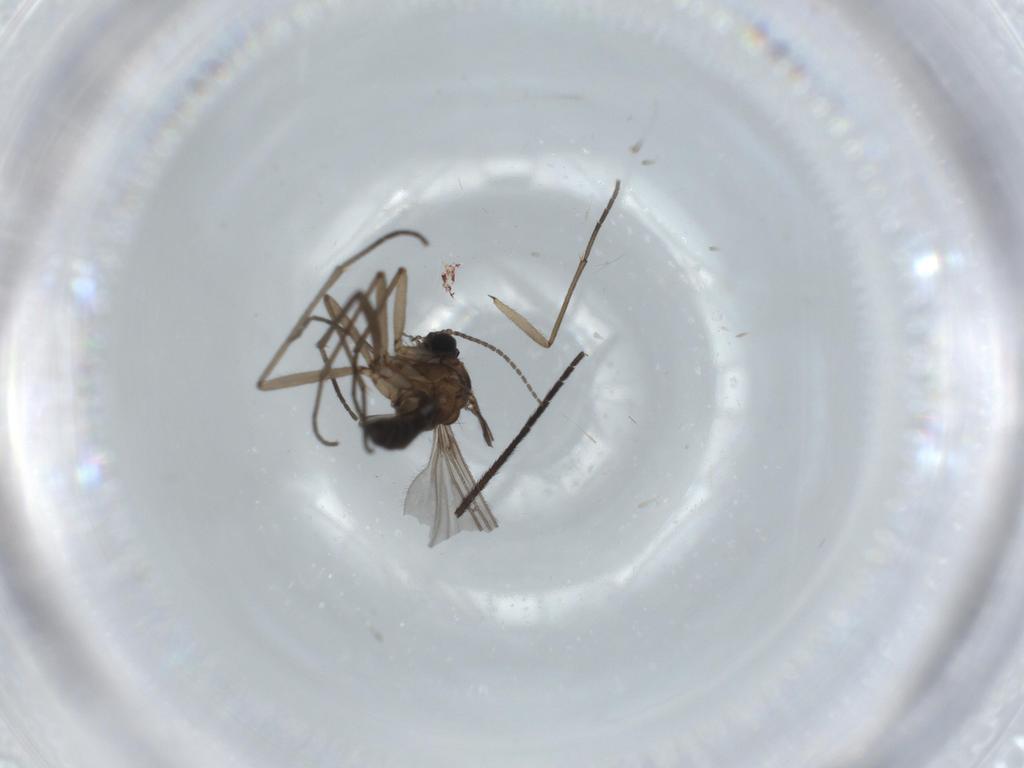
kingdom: Animalia
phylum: Arthropoda
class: Insecta
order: Diptera
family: Sciaridae
